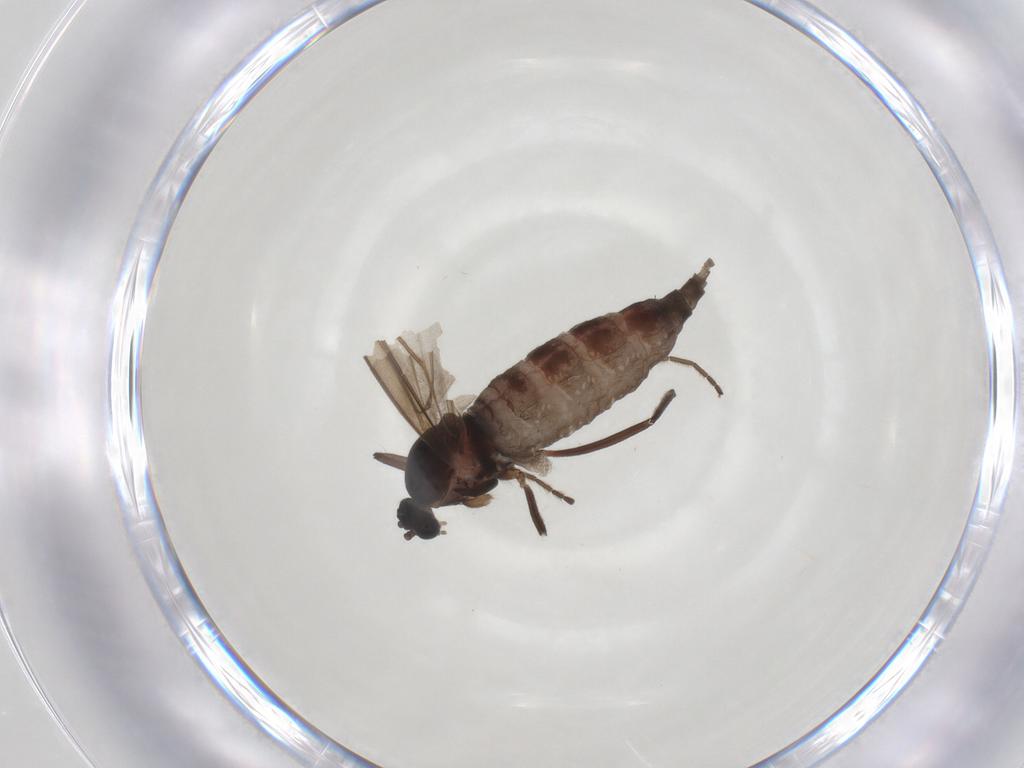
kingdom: Animalia
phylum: Arthropoda
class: Insecta
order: Diptera
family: Cecidomyiidae
